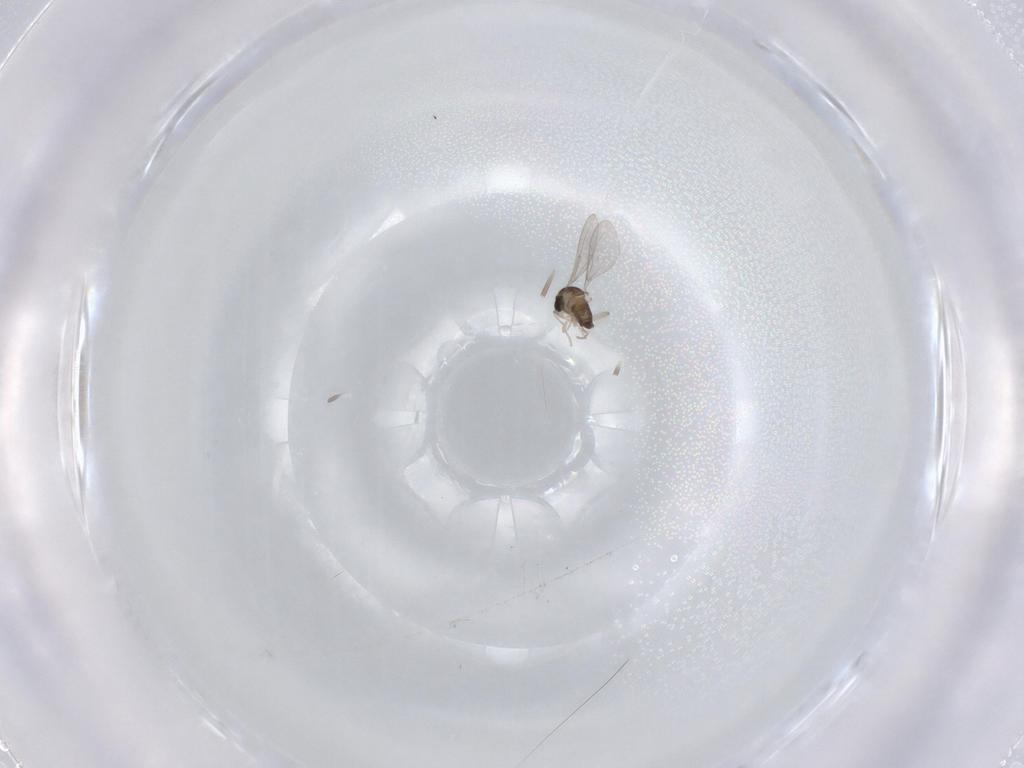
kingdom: Animalia
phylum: Arthropoda
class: Insecta
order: Diptera
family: Cecidomyiidae
